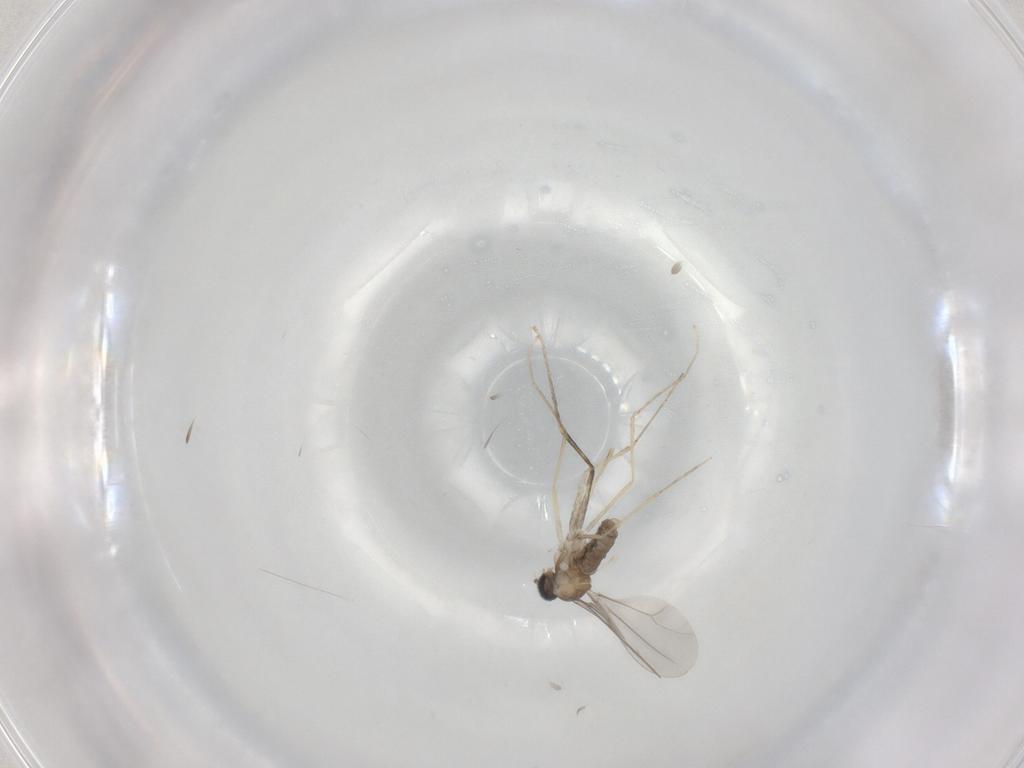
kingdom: Animalia
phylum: Arthropoda
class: Insecta
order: Diptera
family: Cecidomyiidae
